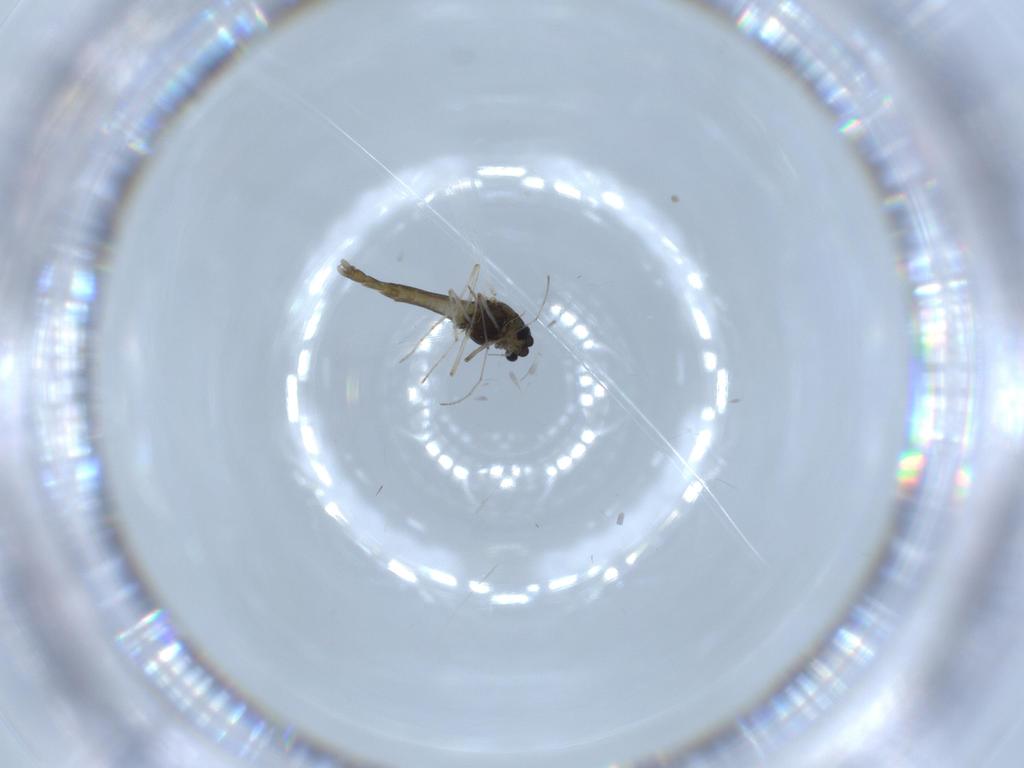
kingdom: Animalia
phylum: Arthropoda
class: Insecta
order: Diptera
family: Chironomidae
